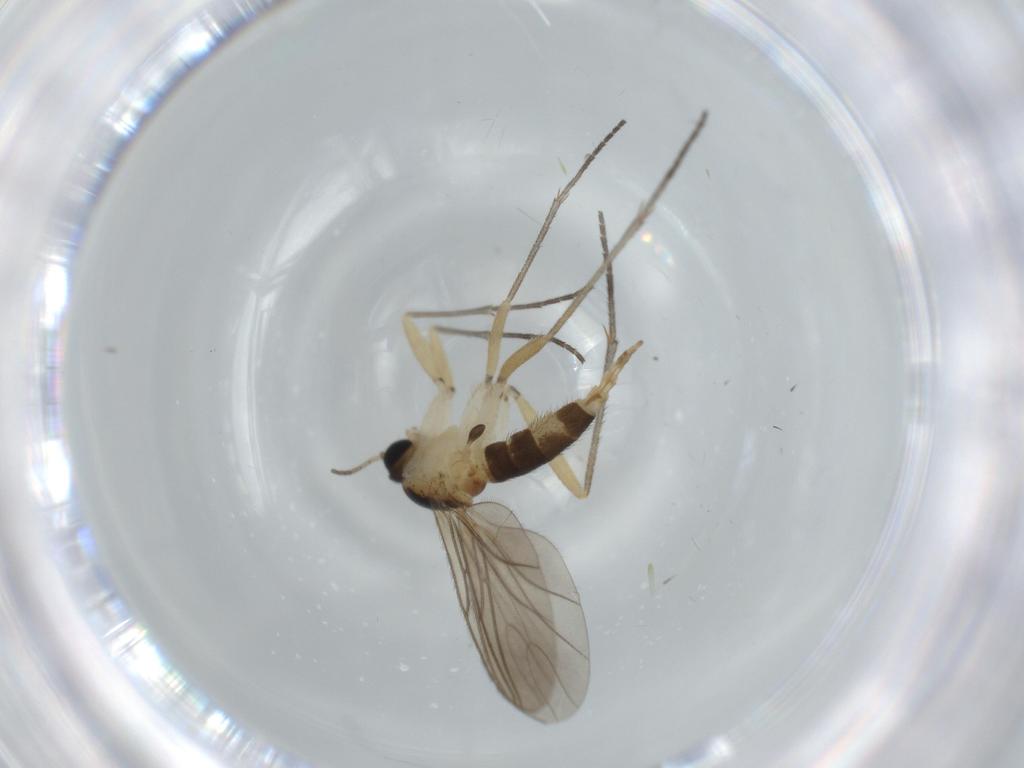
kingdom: Animalia
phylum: Arthropoda
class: Insecta
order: Diptera
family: Sciaridae
